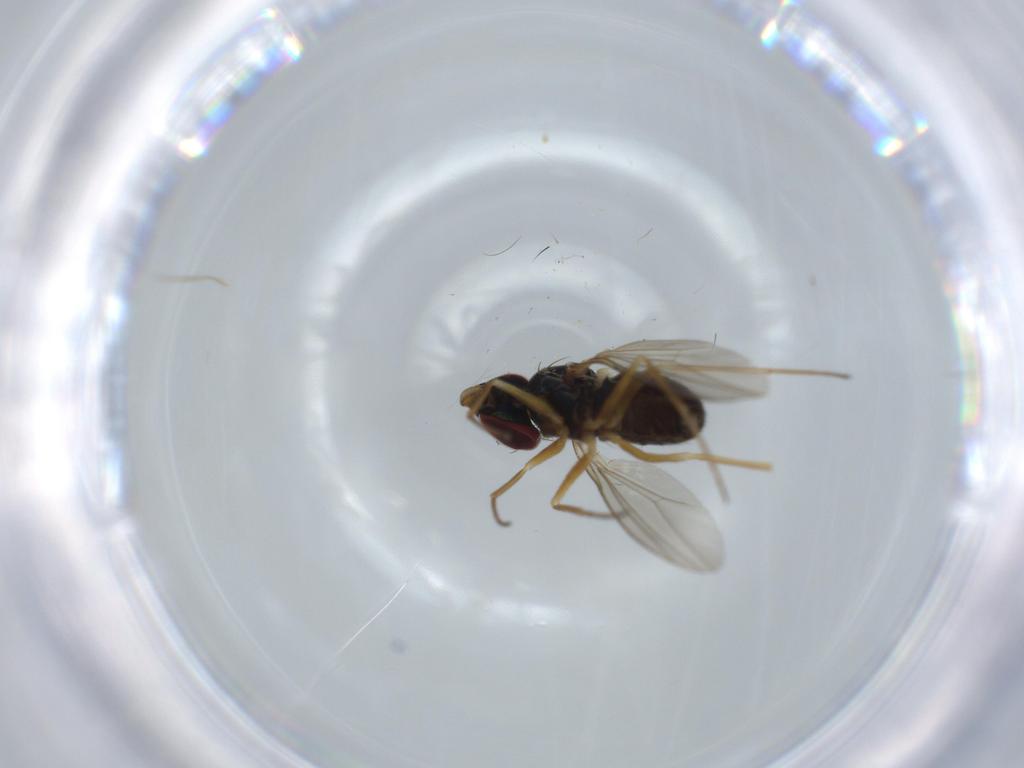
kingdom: Animalia
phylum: Arthropoda
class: Insecta
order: Diptera
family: Dolichopodidae
